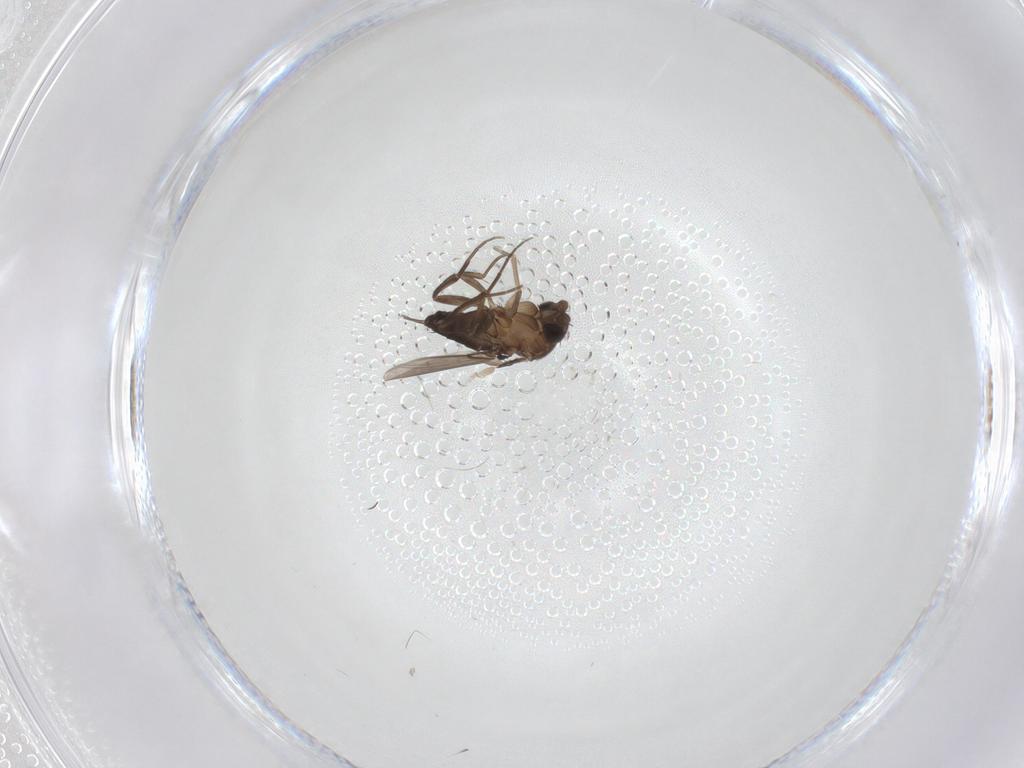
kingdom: Animalia
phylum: Arthropoda
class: Insecta
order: Diptera
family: Phoridae
